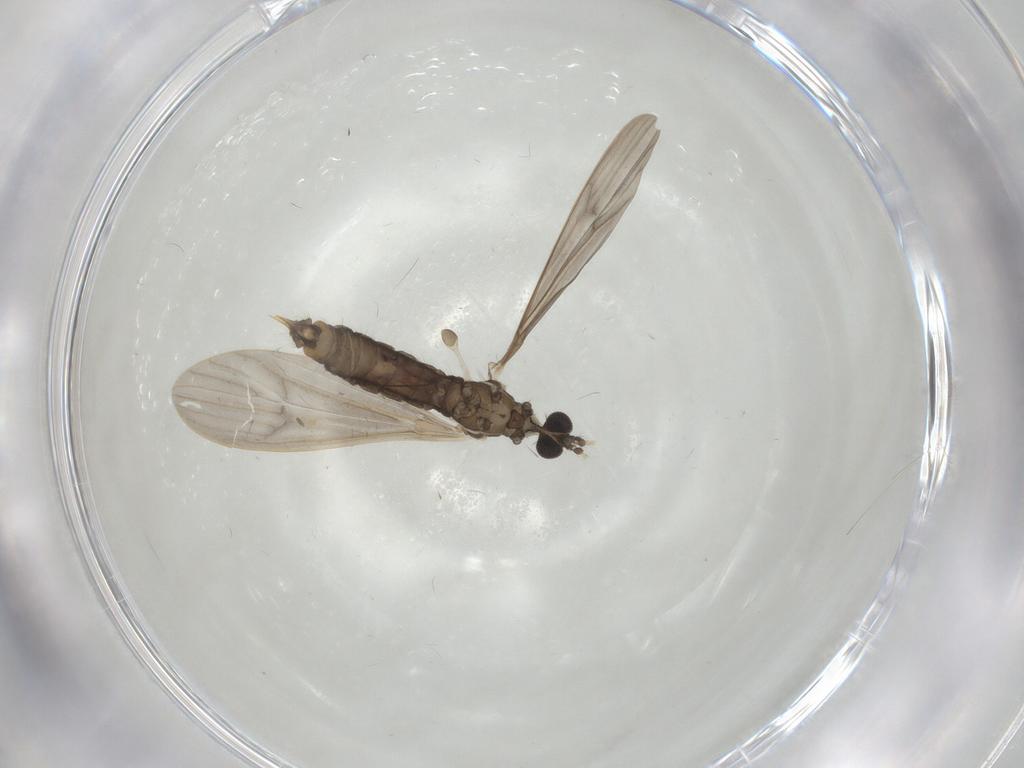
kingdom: Animalia
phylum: Arthropoda
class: Insecta
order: Diptera
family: Limoniidae
